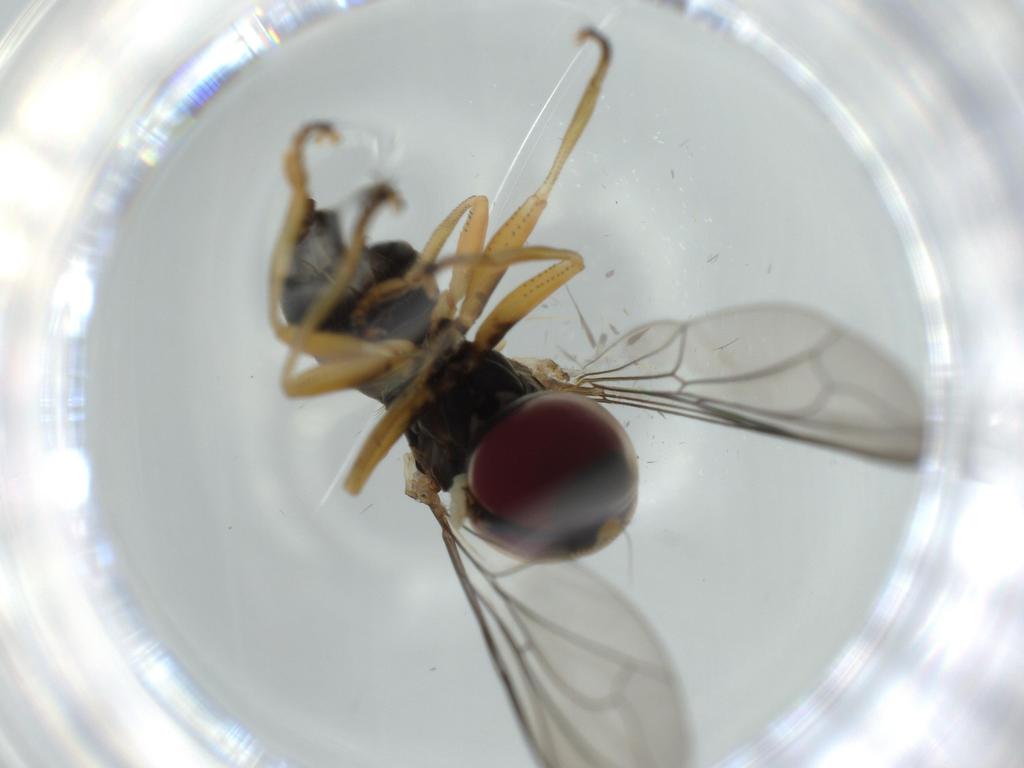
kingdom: Animalia
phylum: Arthropoda
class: Insecta
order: Diptera
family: Pipunculidae
